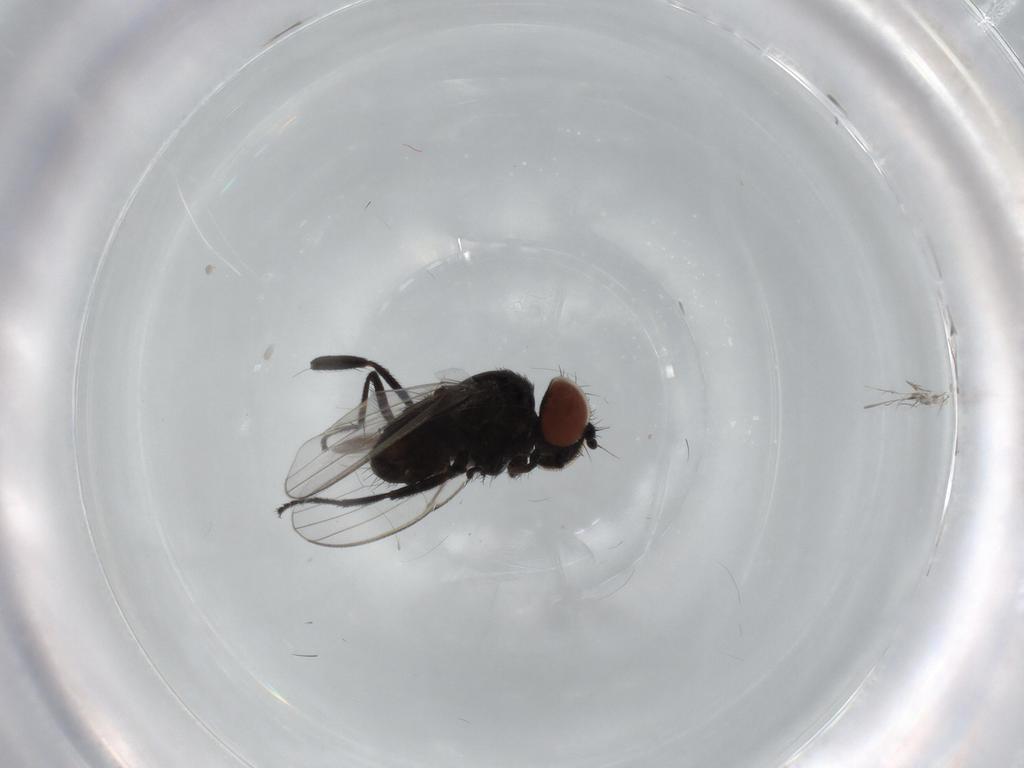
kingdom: Animalia
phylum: Arthropoda
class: Insecta
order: Diptera
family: Milichiidae
